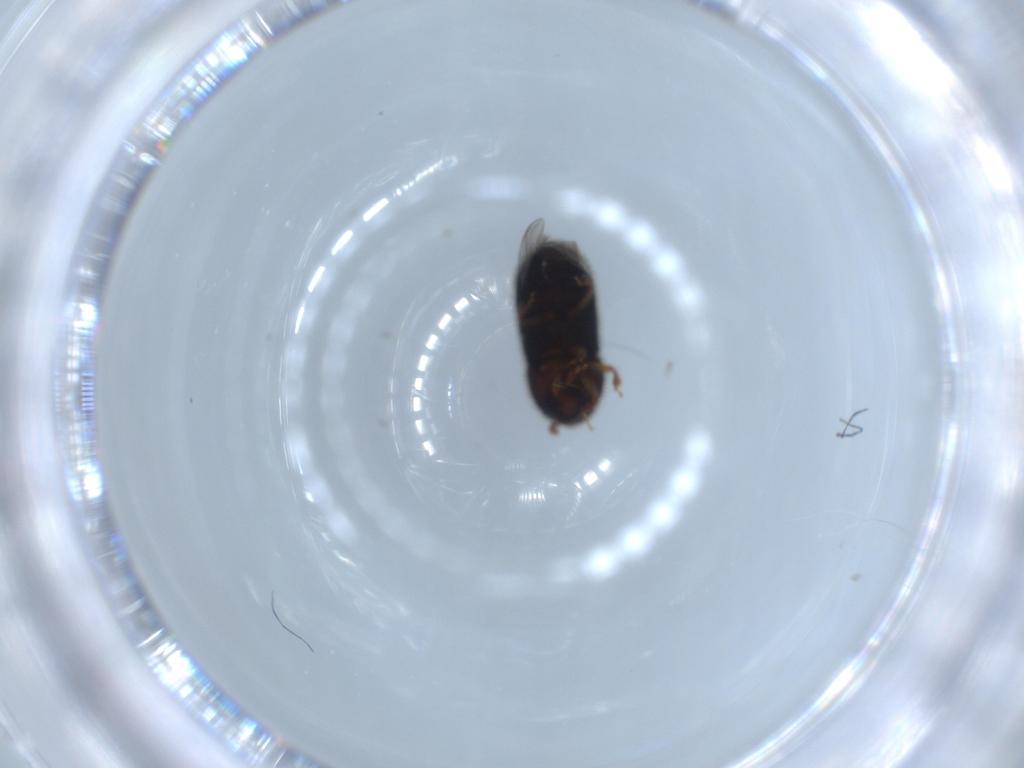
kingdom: Animalia
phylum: Arthropoda
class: Insecta
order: Coleoptera
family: Curculionidae
